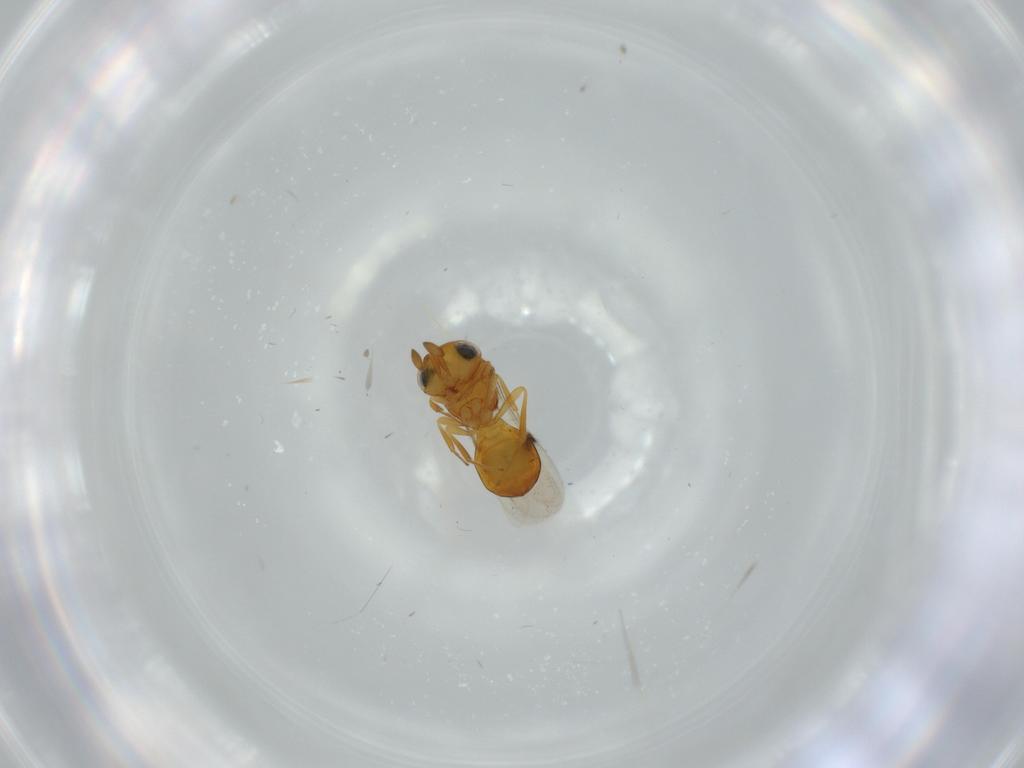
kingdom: Animalia
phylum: Arthropoda
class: Insecta
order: Hymenoptera
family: Scelionidae
